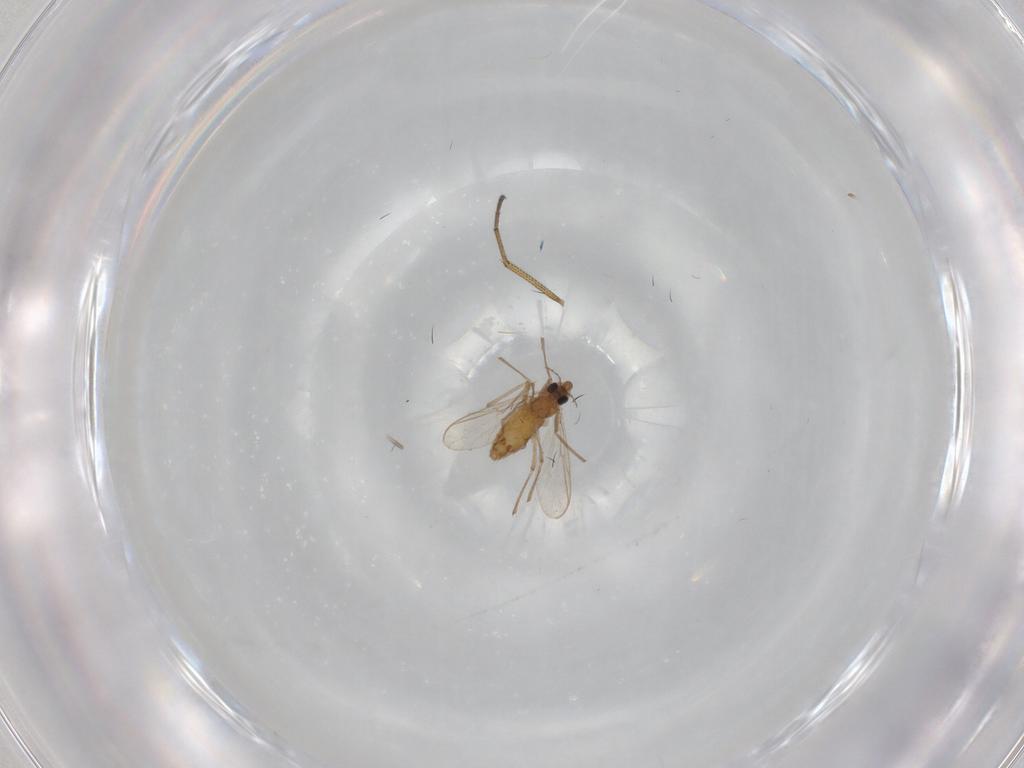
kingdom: Animalia
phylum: Arthropoda
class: Insecta
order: Diptera
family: Chironomidae
